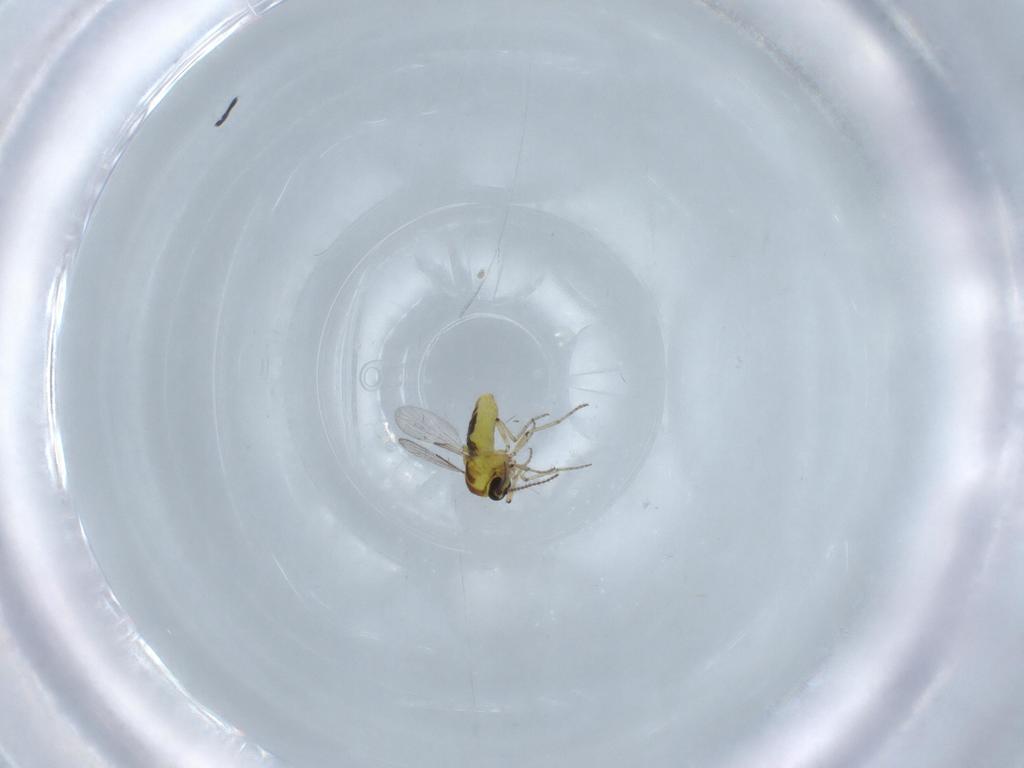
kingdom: Animalia
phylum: Arthropoda
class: Insecta
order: Diptera
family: Ceratopogonidae
